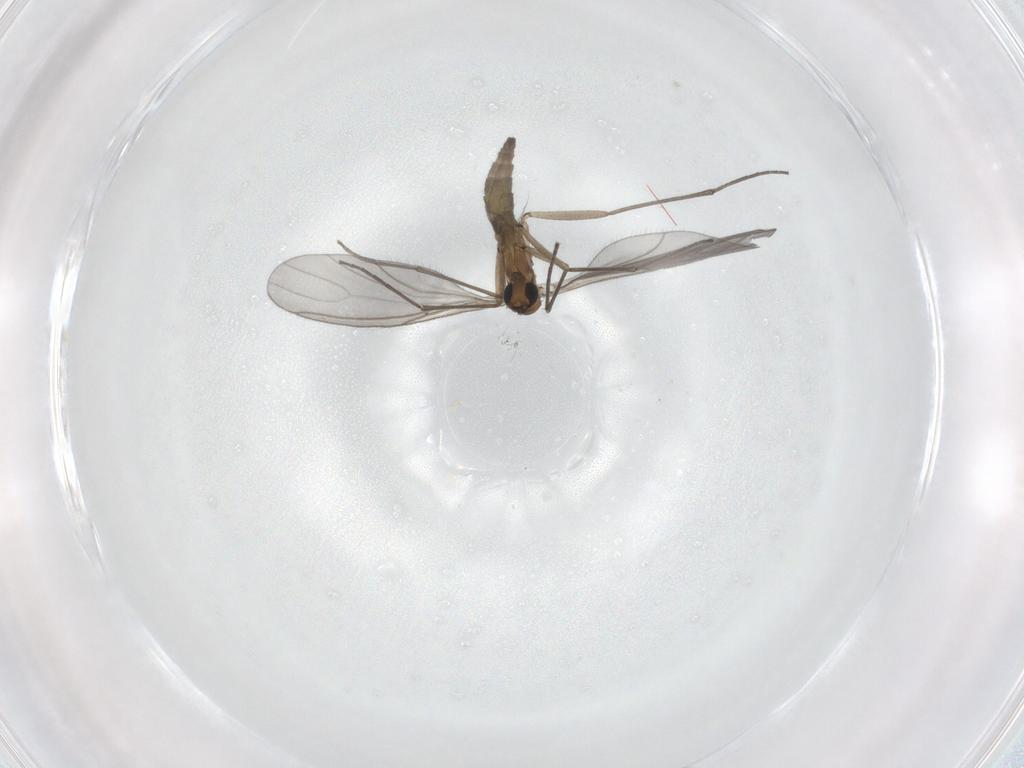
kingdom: Animalia
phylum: Arthropoda
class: Insecta
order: Diptera
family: Sciaridae
